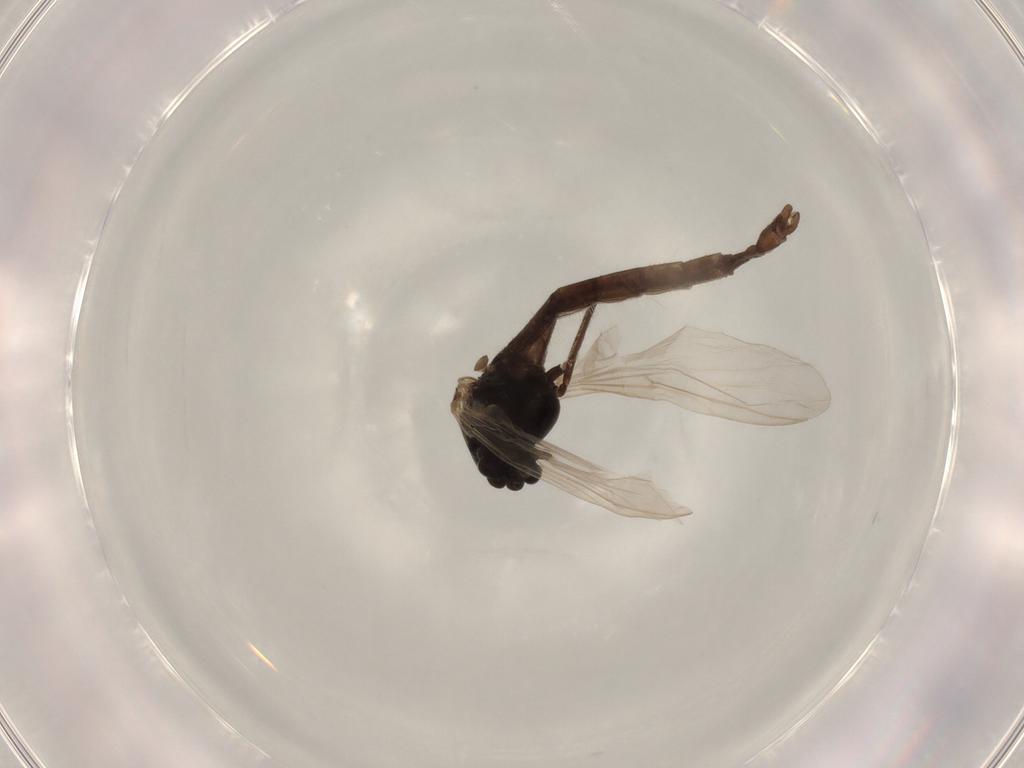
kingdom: Animalia
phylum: Arthropoda
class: Insecta
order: Diptera
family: Chironomidae
